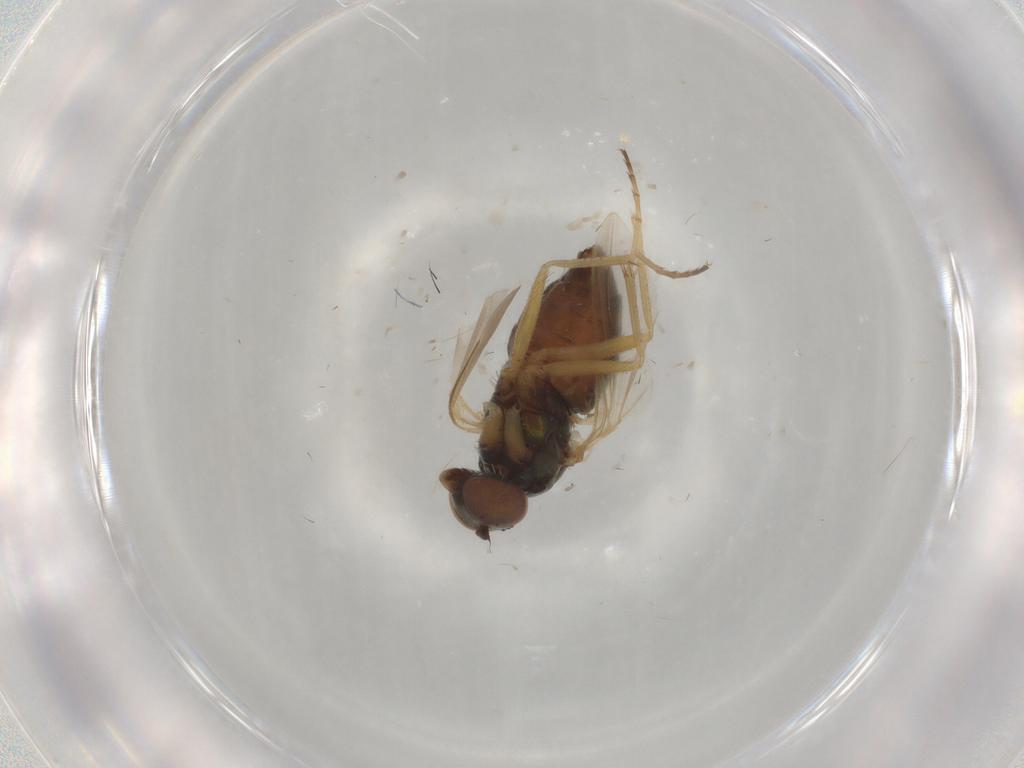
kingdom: Animalia
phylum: Arthropoda
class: Insecta
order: Diptera
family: Dolichopodidae
